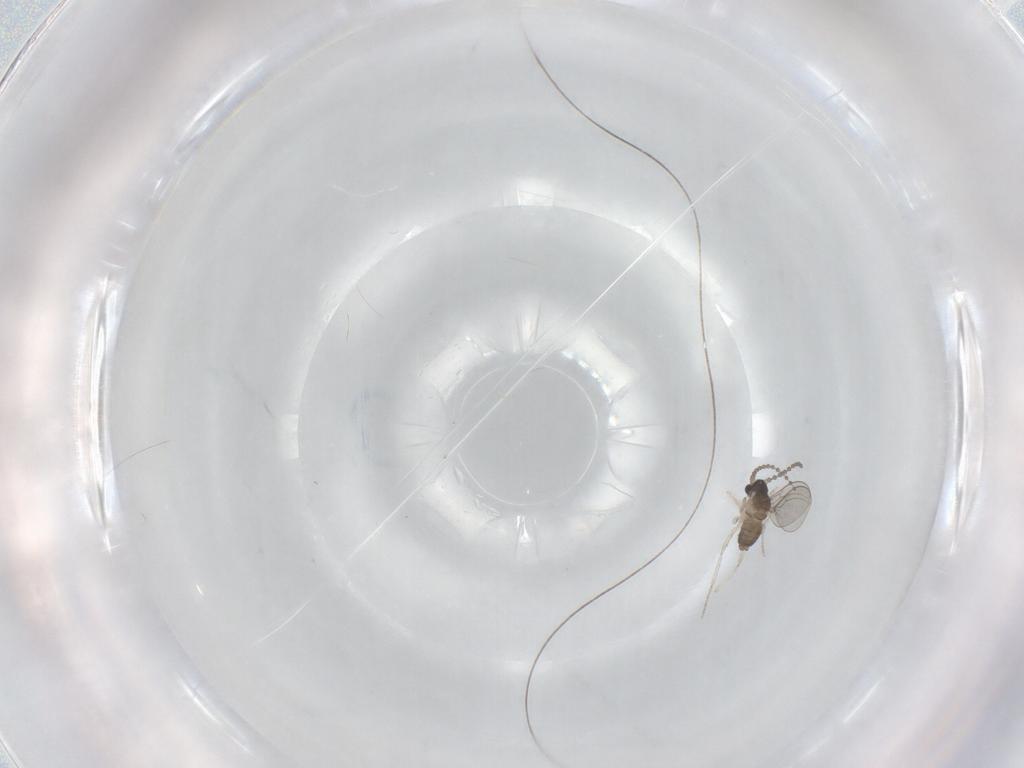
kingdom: Animalia
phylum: Arthropoda
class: Insecta
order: Diptera
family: Cecidomyiidae
